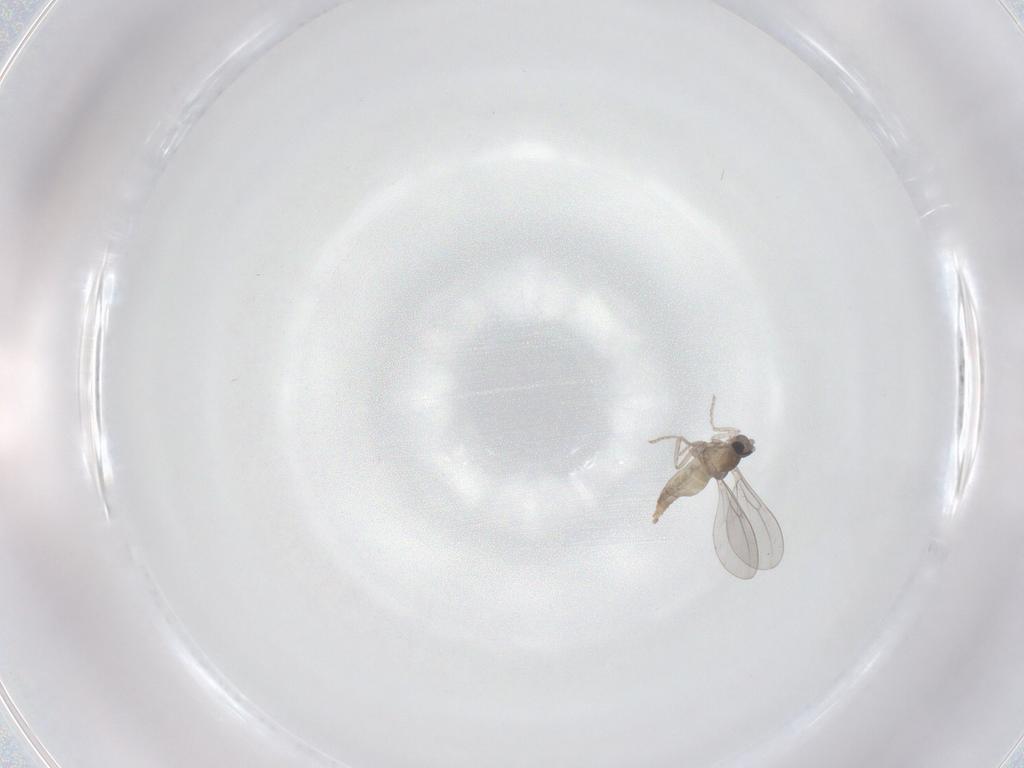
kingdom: Animalia
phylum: Arthropoda
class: Insecta
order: Diptera
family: Cecidomyiidae
